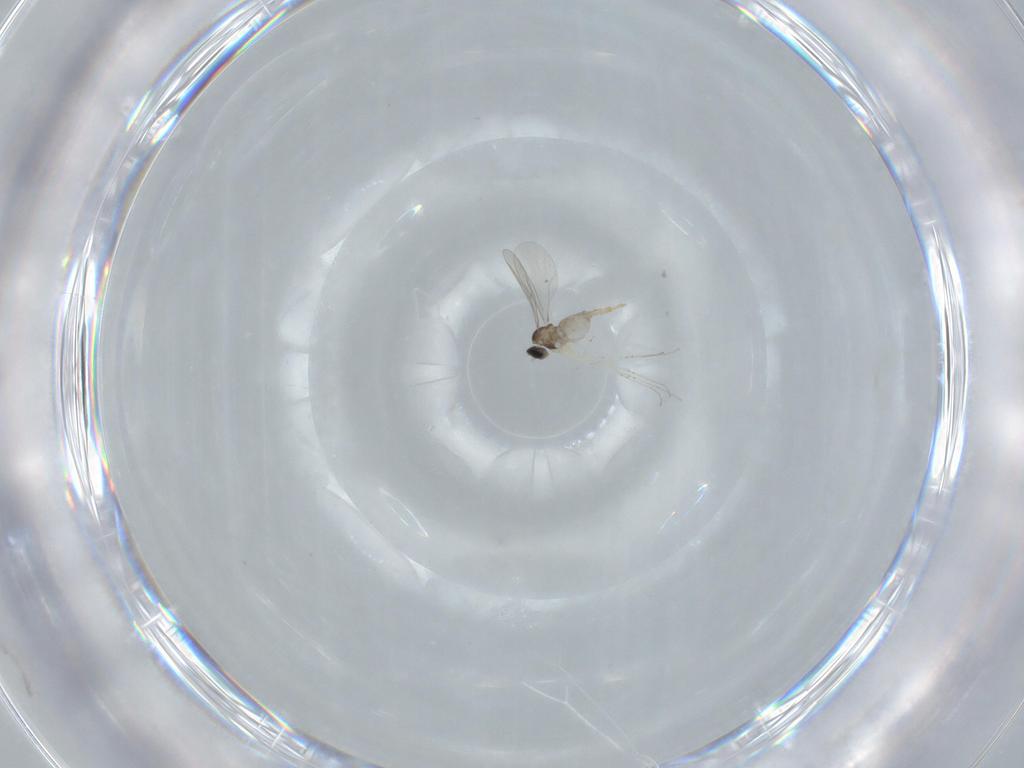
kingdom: Animalia
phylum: Arthropoda
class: Insecta
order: Diptera
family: Cecidomyiidae
